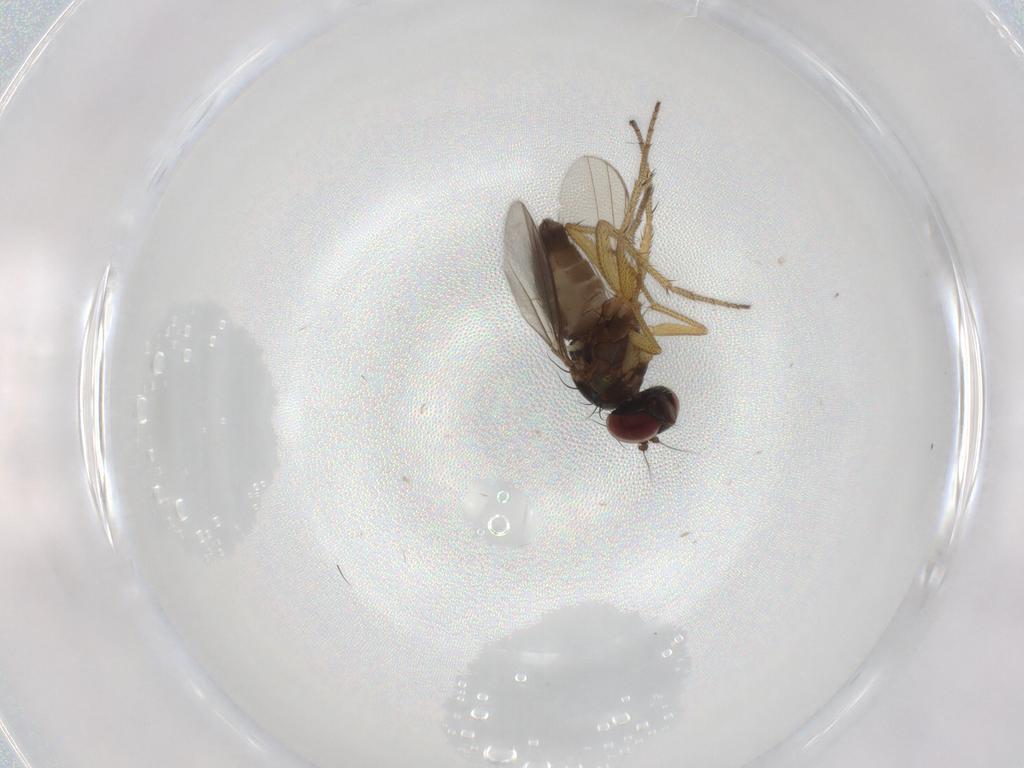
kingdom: Animalia
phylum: Arthropoda
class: Insecta
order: Diptera
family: Dolichopodidae
